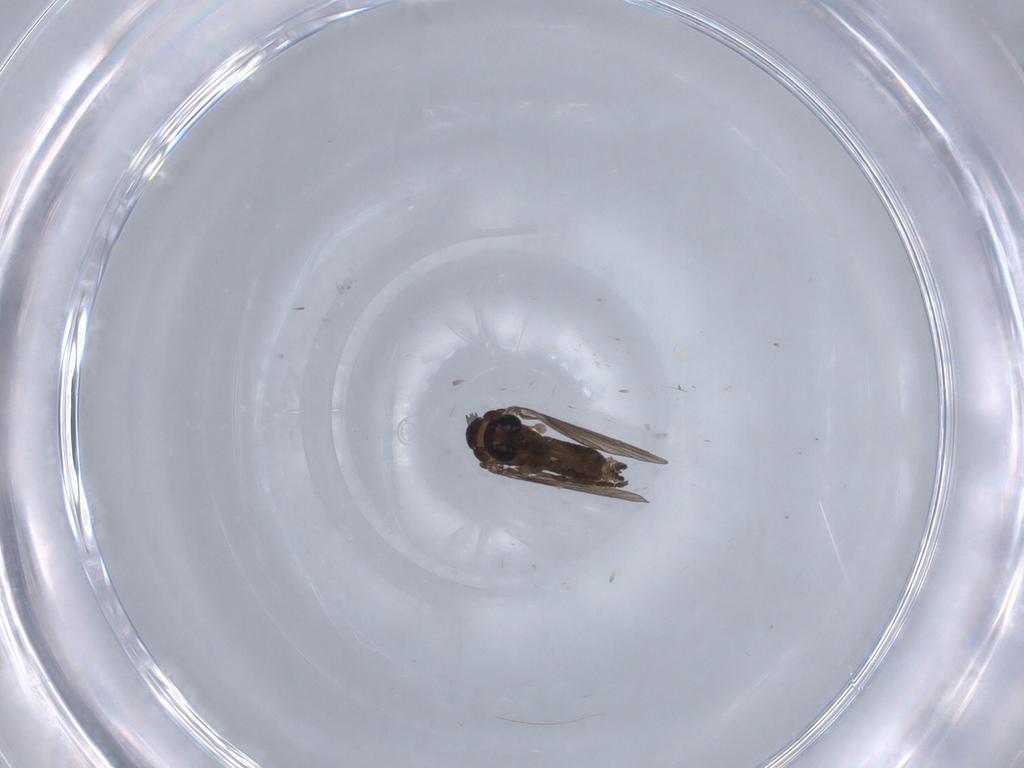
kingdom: Animalia
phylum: Arthropoda
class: Insecta
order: Diptera
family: Psychodidae
